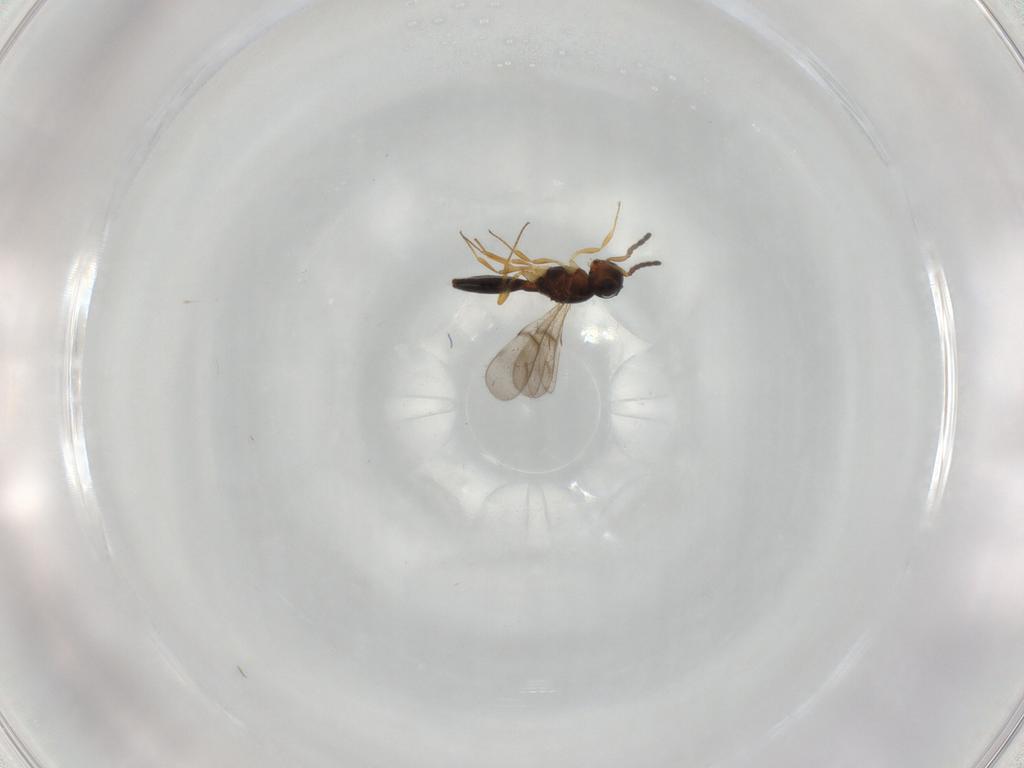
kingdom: Animalia
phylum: Arthropoda
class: Insecta
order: Hymenoptera
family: Scelionidae
